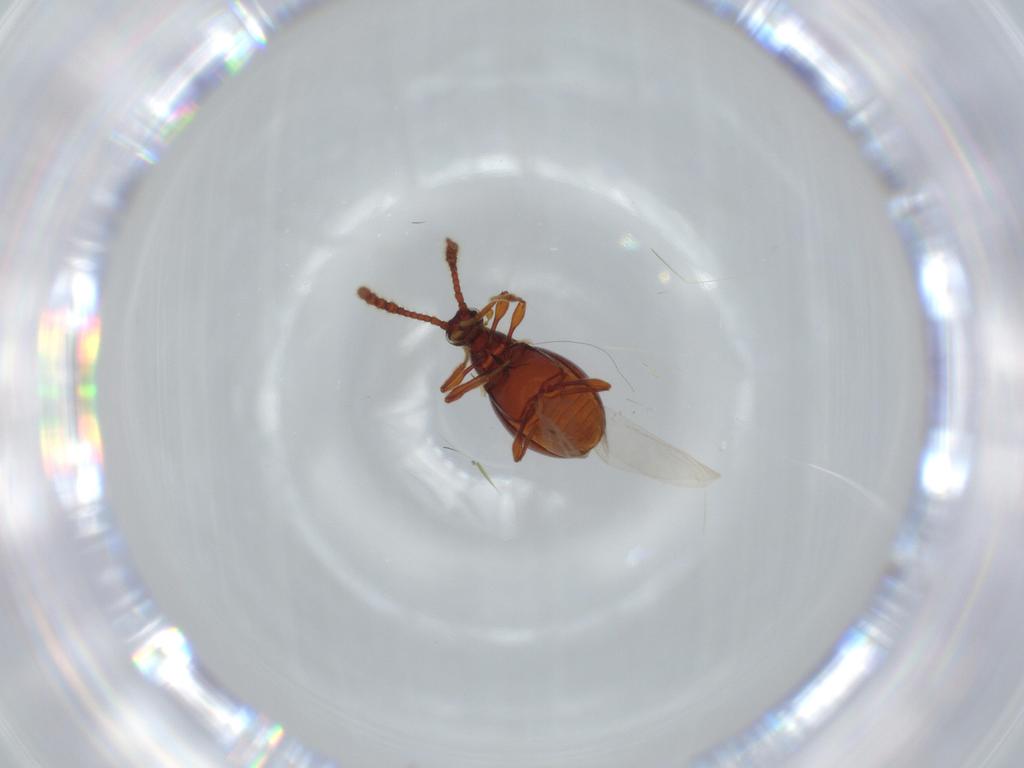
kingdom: Animalia
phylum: Arthropoda
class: Insecta
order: Coleoptera
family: Staphylinidae
